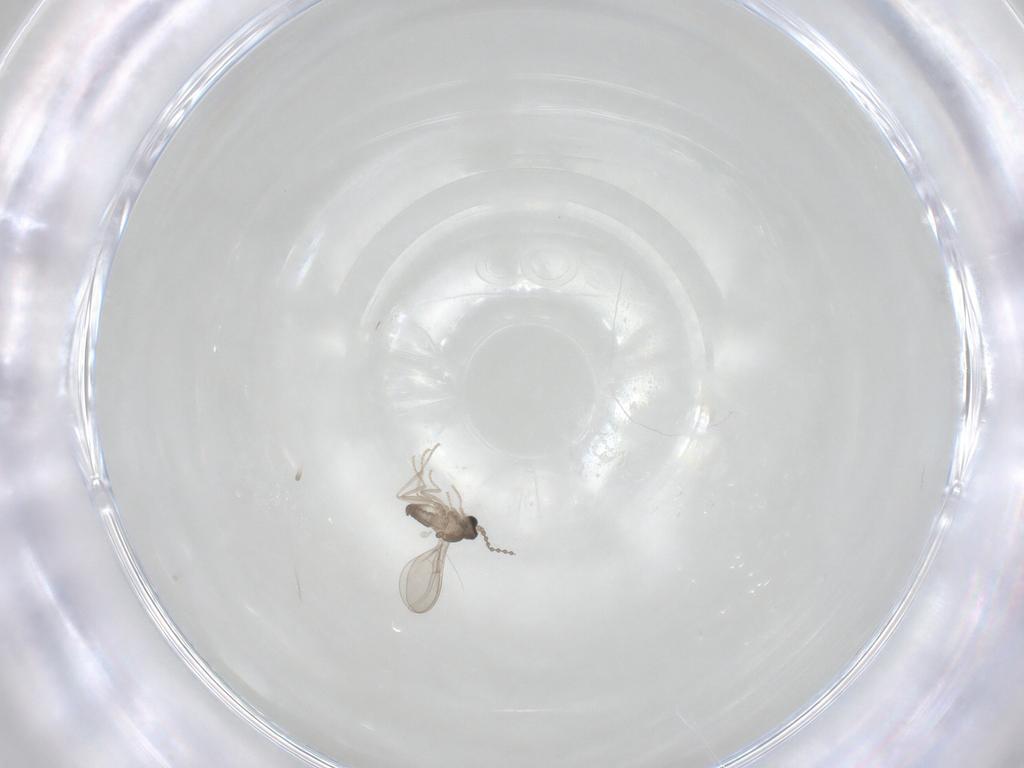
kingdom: Animalia
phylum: Arthropoda
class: Insecta
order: Diptera
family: Cecidomyiidae
